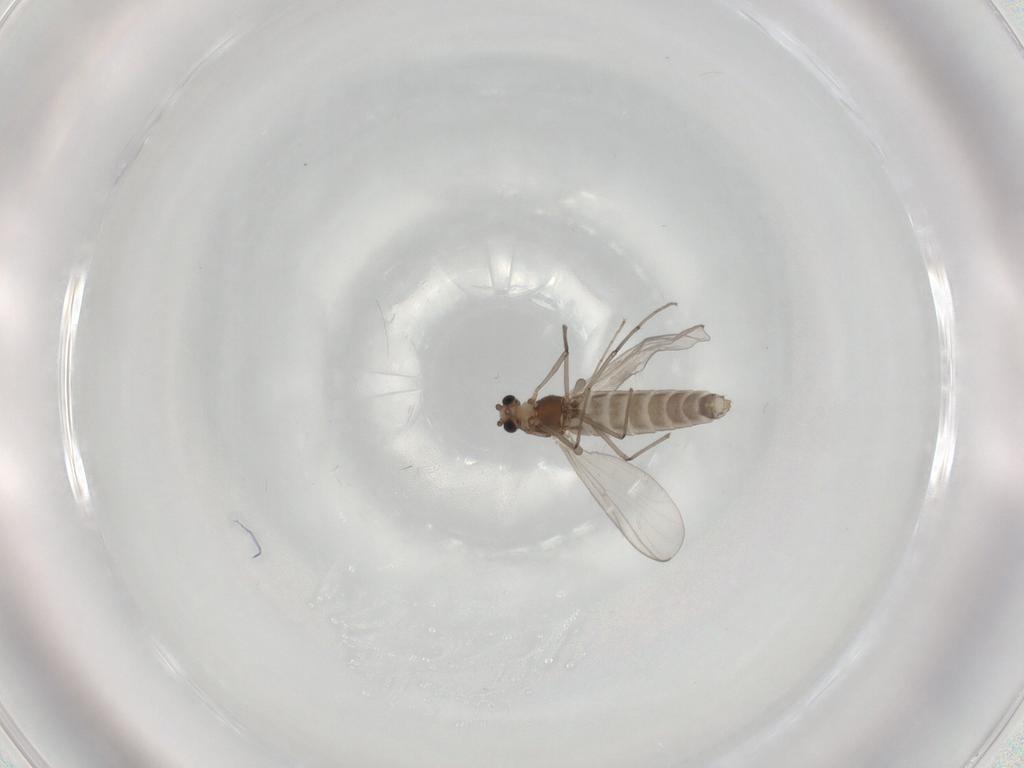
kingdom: Animalia
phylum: Arthropoda
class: Insecta
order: Diptera
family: Chironomidae
